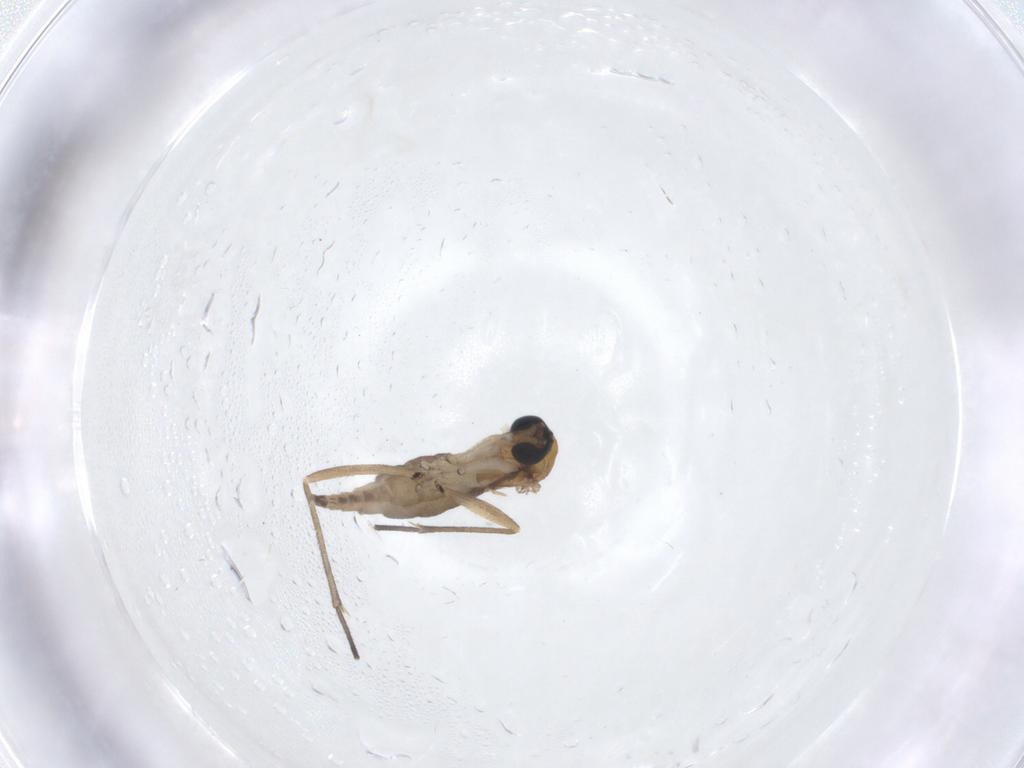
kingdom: Animalia
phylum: Arthropoda
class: Insecta
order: Diptera
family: Sciaridae
